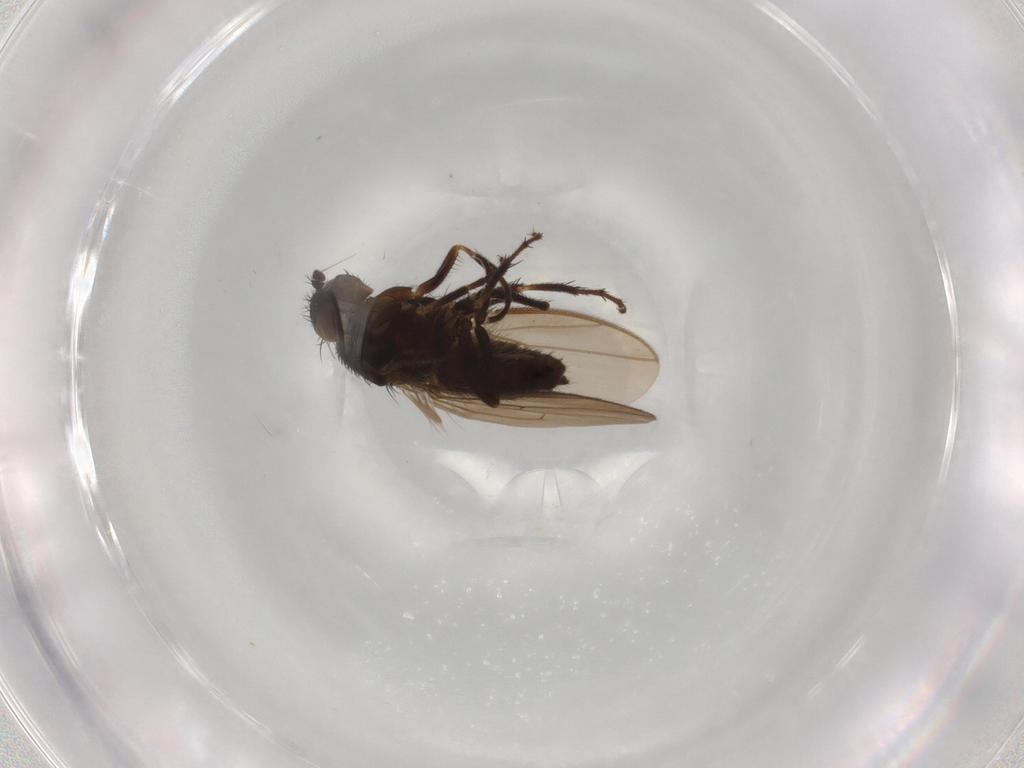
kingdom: Animalia
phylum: Arthropoda
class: Insecta
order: Diptera
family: Sphaeroceridae
